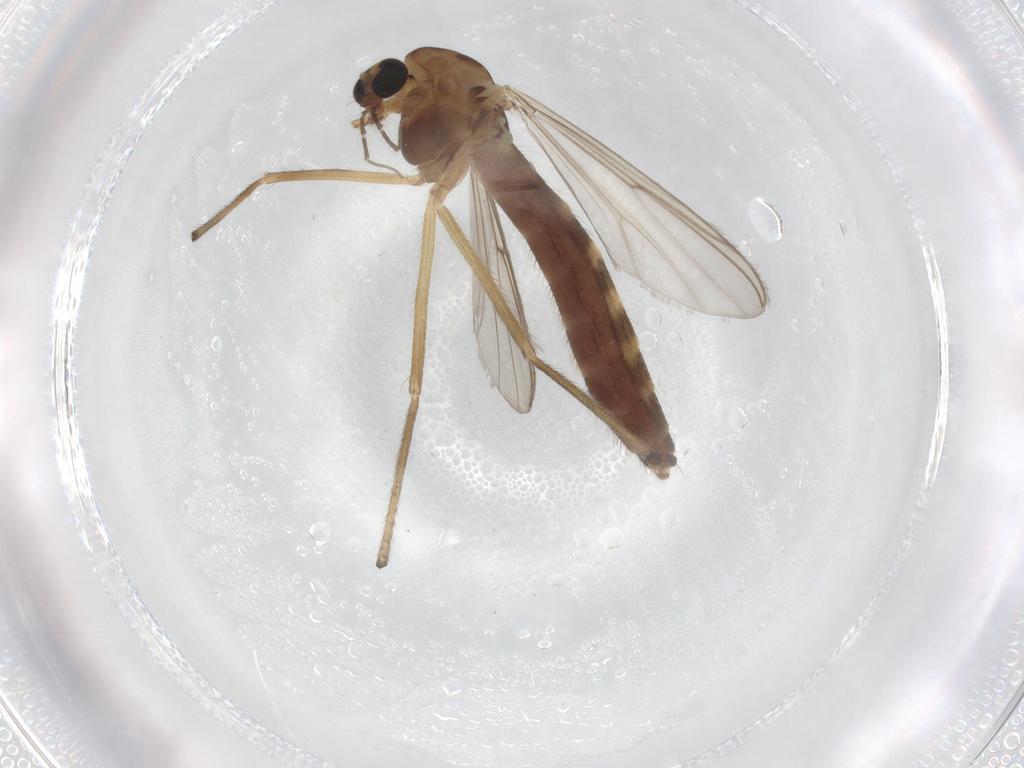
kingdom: Animalia
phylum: Arthropoda
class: Insecta
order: Diptera
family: Chironomidae
